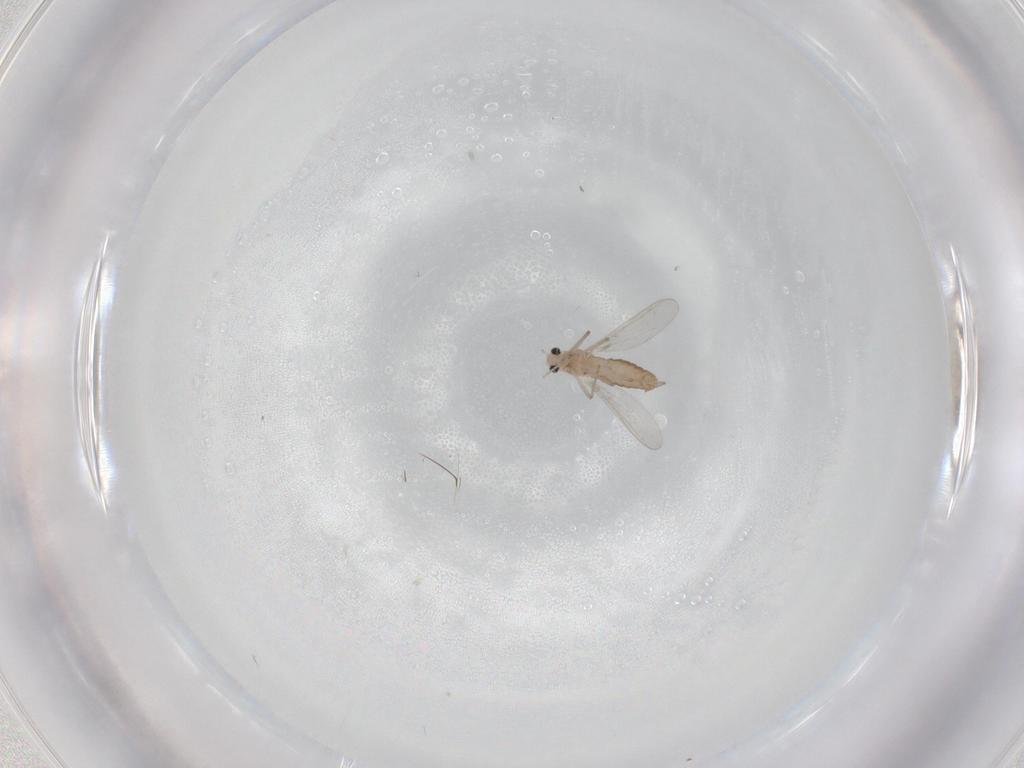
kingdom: Animalia
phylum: Arthropoda
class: Insecta
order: Diptera
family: Chironomidae
